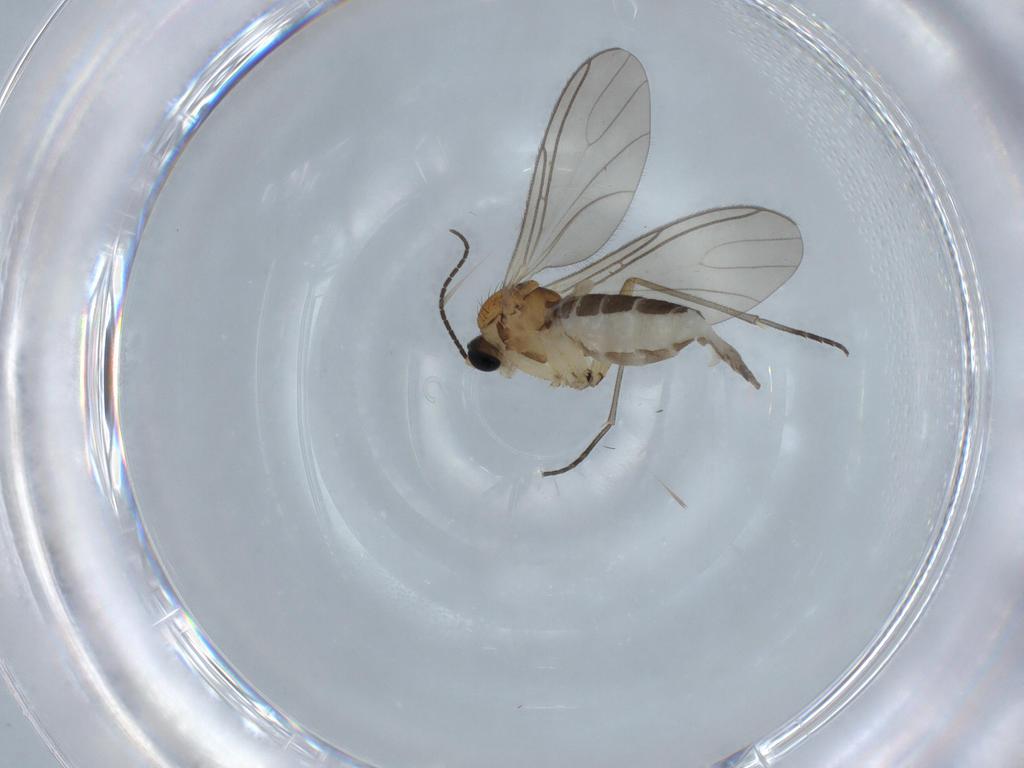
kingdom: Animalia
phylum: Arthropoda
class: Insecta
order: Diptera
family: Sciaridae
